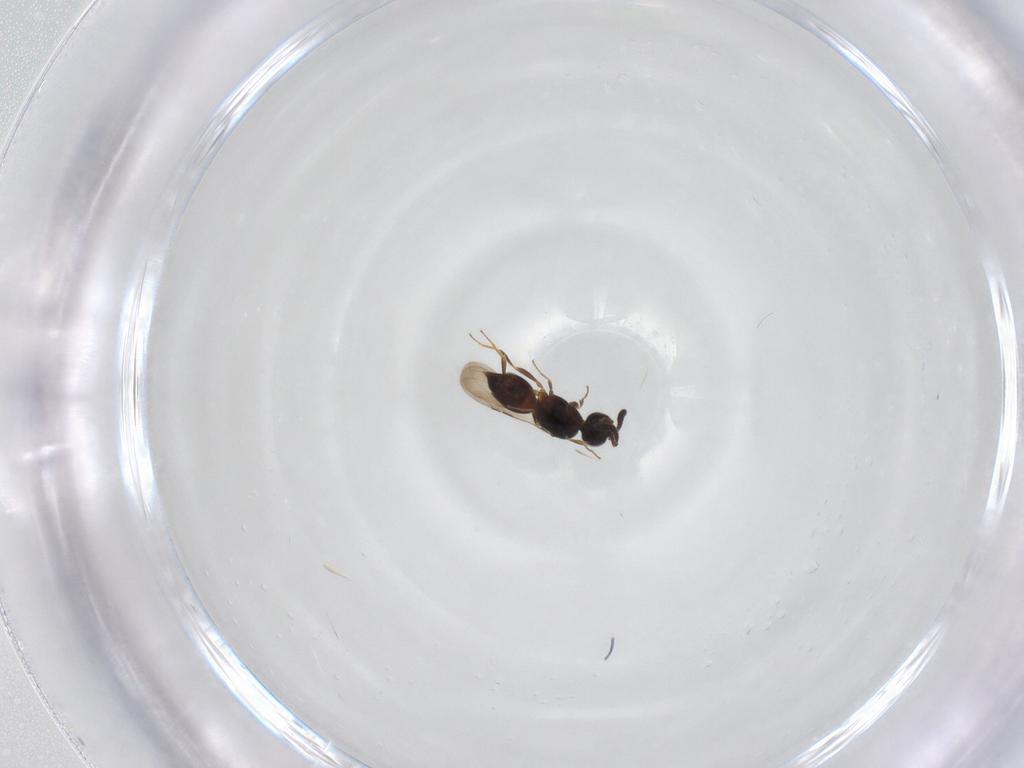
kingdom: Animalia
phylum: Arthropoda
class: Insecta
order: Hymenoptera
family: Ceraphronidae
